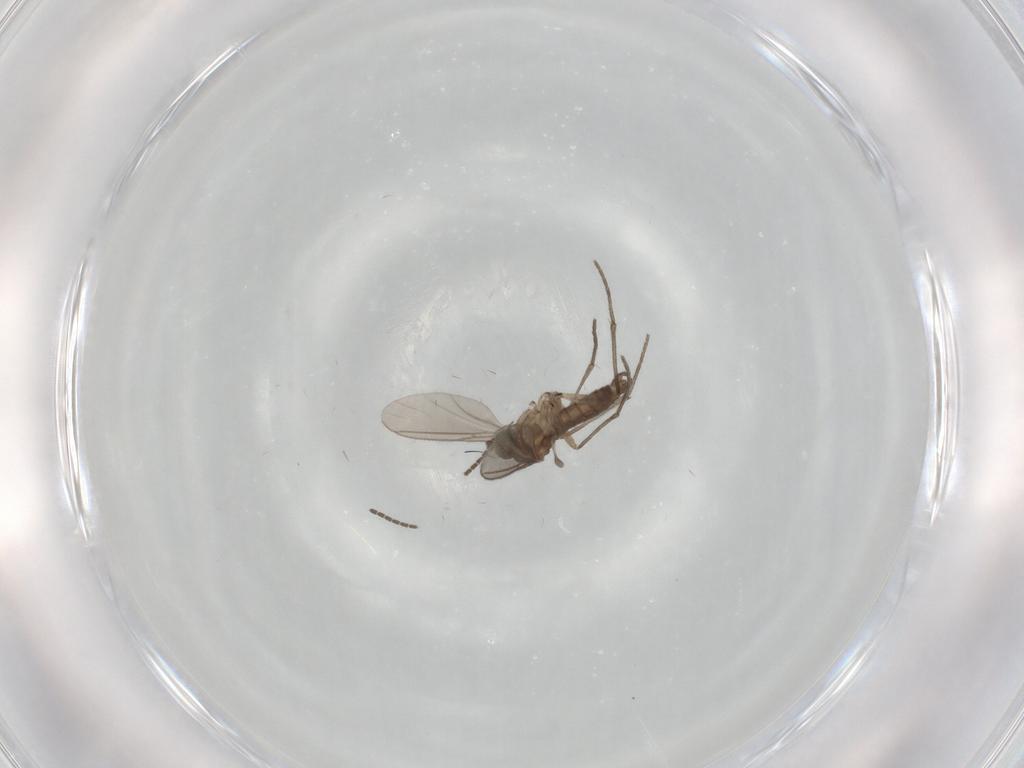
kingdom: Animalia
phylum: Arthropoda
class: Insecta
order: Diptera
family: Sciaridae
